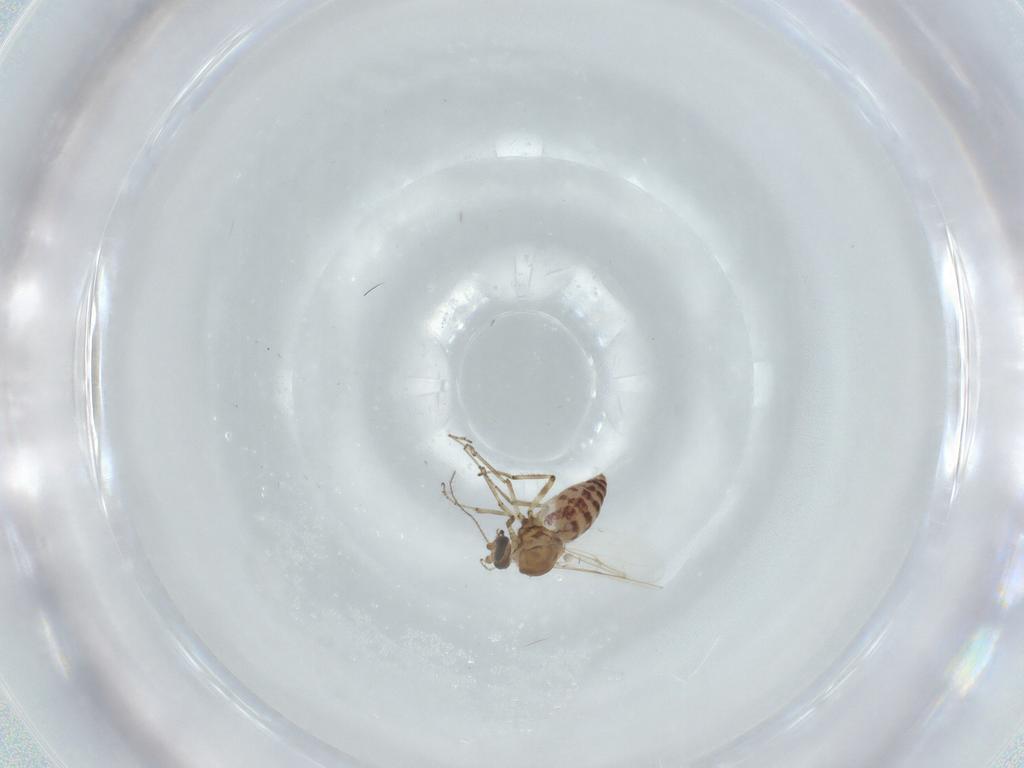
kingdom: Animalia
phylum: Arthropoda
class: Insecta
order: Diptera
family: Ceratopogonidae
